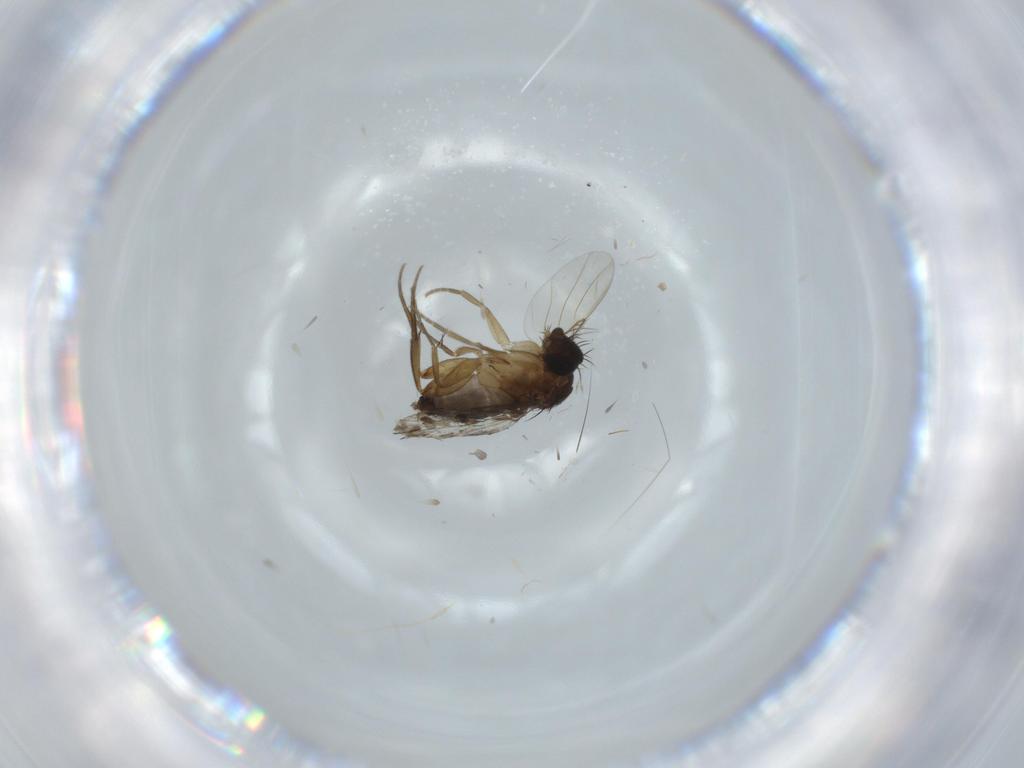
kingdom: Animalia
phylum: Arthropoda
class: Insecta
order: Diptera
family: Phoridae
